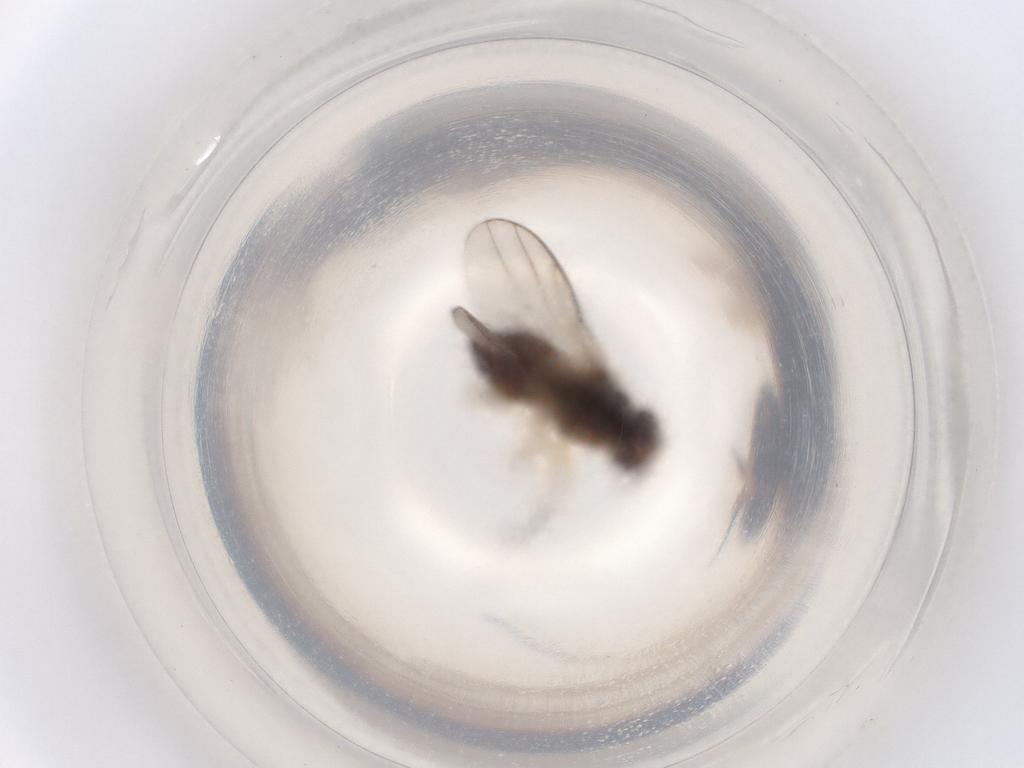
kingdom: Animalia
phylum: Arthropoda
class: Insecta
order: Diptera
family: Chloropidae
